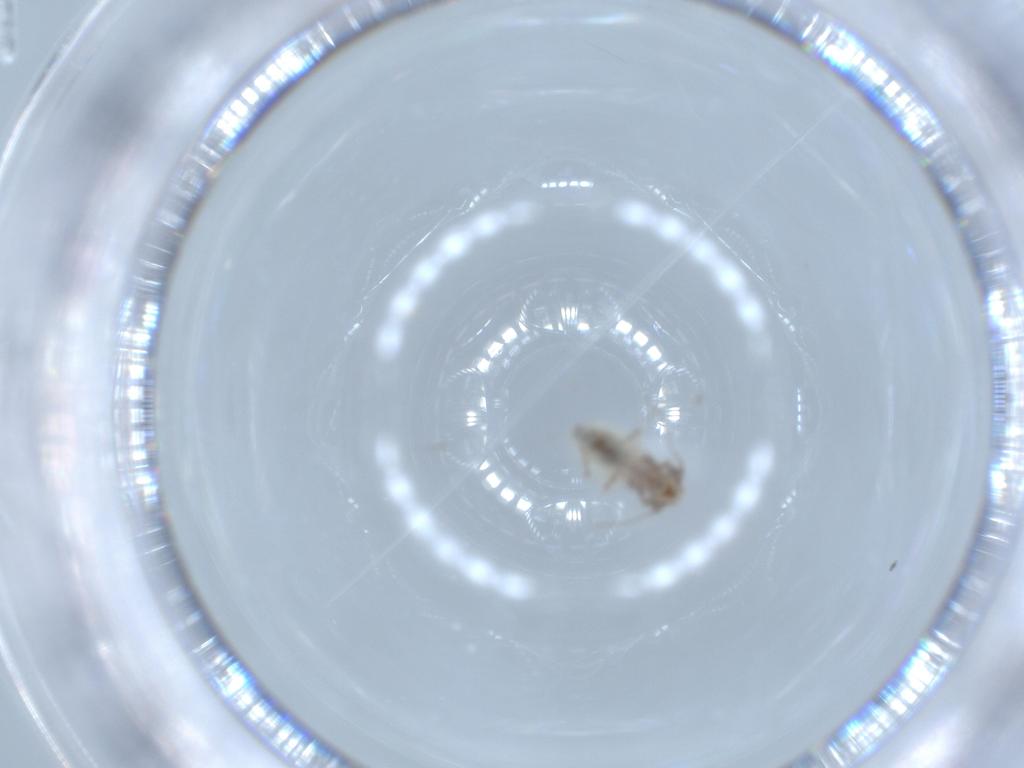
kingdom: Animalia
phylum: Arthropoda
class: Insecta
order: Psocodea
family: Lepidopsocidae
